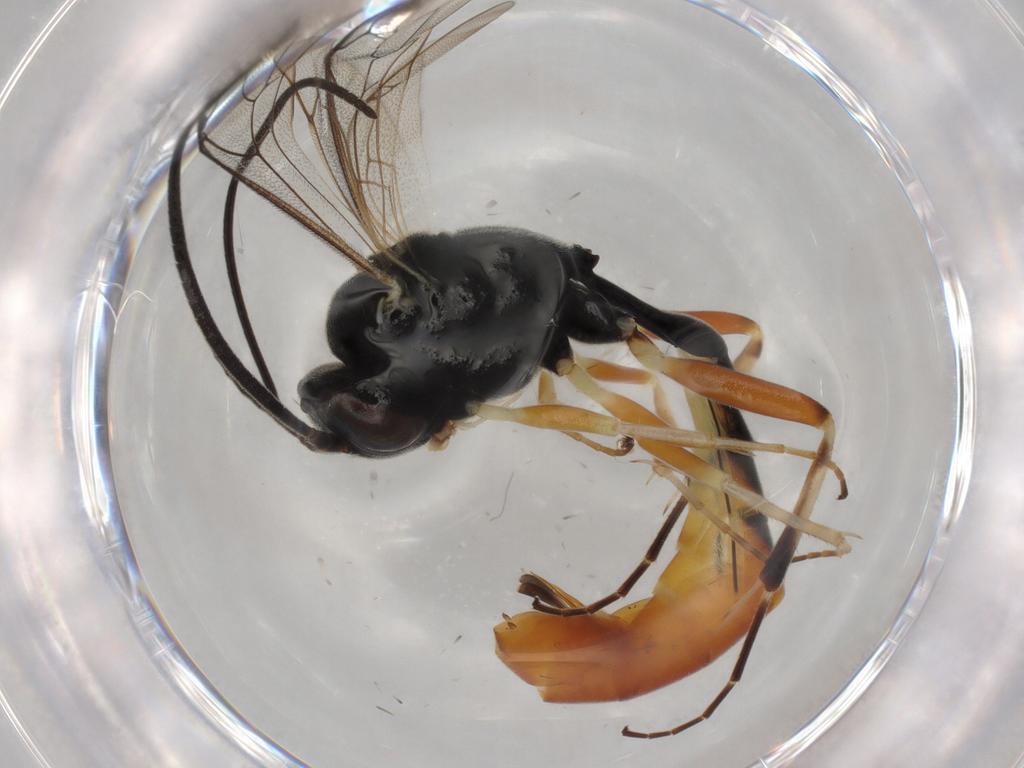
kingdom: Animalia
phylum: Arthropoda
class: Insecta
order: Hymenoptera
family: Ichneumonidae
